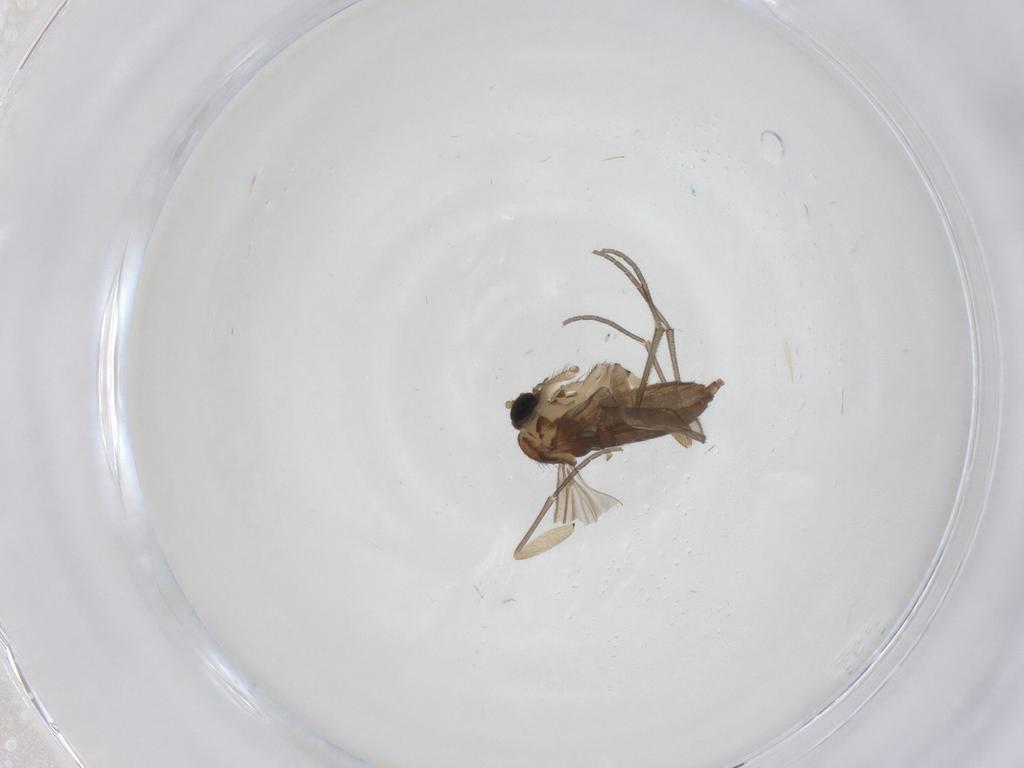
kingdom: Animalia
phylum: Arthropoda
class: Insecta
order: Diptera
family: Sciaridae
